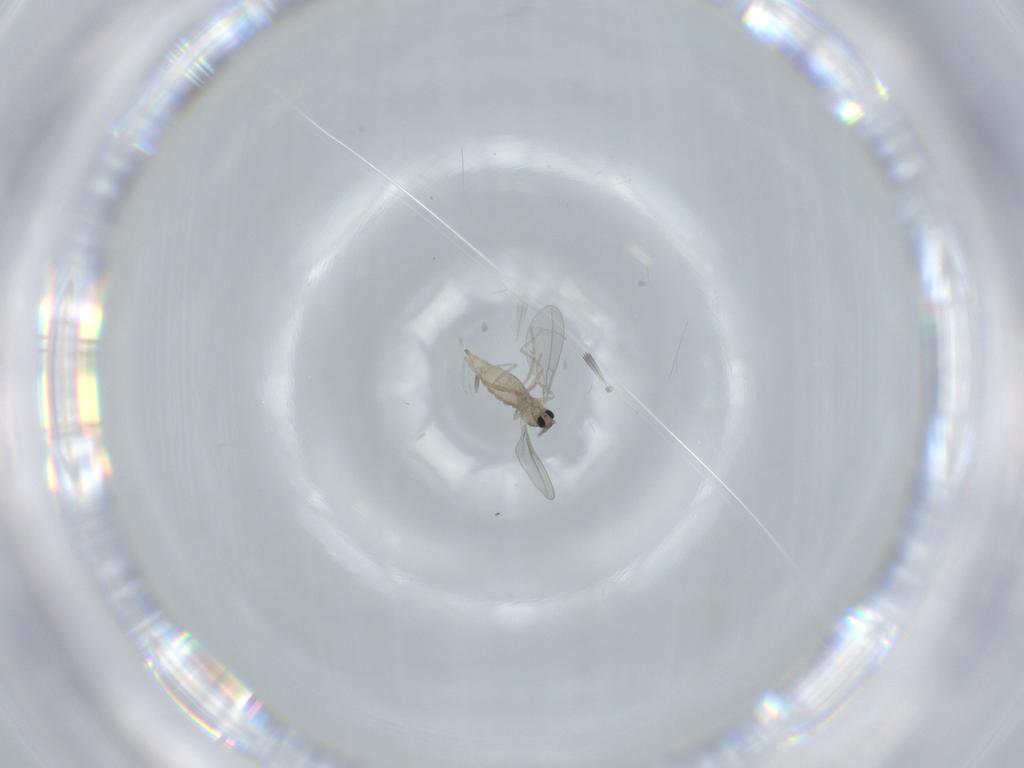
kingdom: Animalia
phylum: Arthropoda
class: Insecta
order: Diptera
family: Cecidomyiidae
